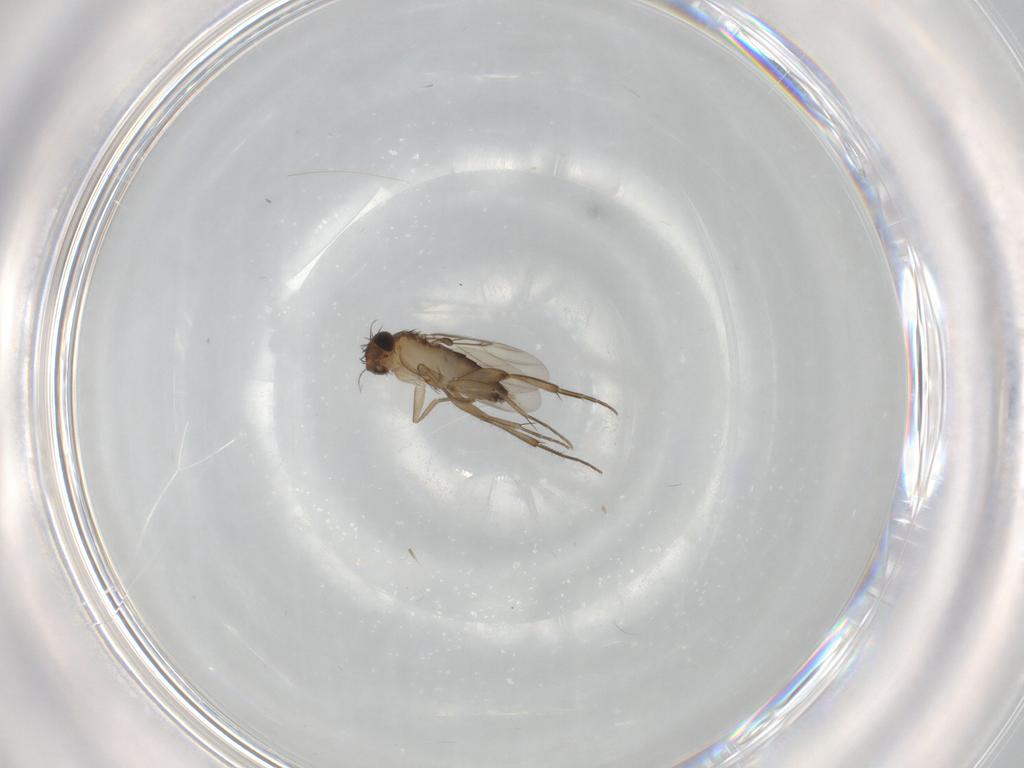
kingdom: Animalia
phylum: Arthropoda
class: Insecta
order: Diptera
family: Phoridae
